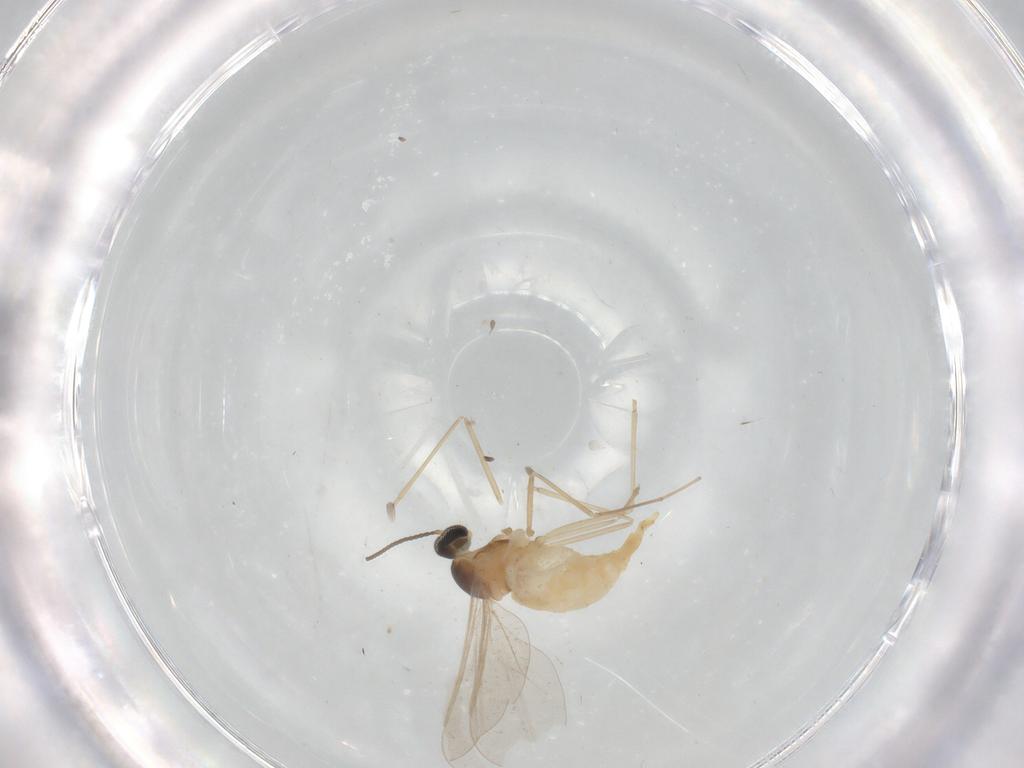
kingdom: Animalia
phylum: Arthropoda
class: Insecta
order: Diptera
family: Cecidomyiidae
